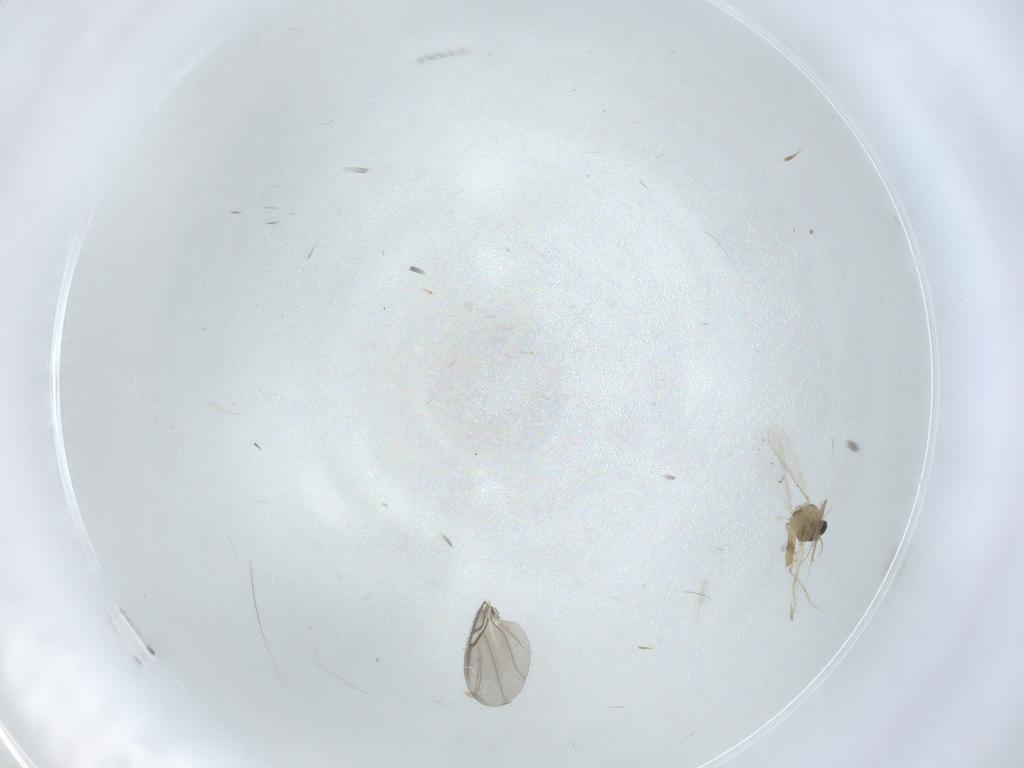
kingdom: Animalia
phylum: Arthropoda
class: Insecta
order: Diptera
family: Chironomidae
